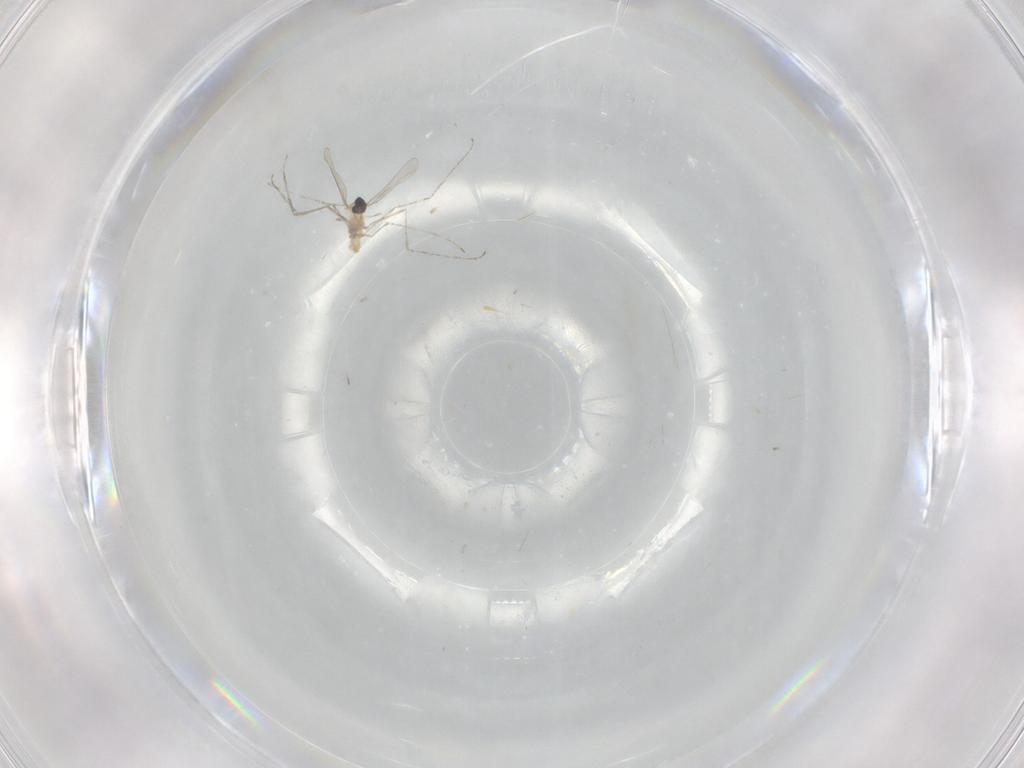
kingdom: Animalia
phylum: Arthropoda
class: Insecta
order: Diptera
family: Cecidomyiidae
